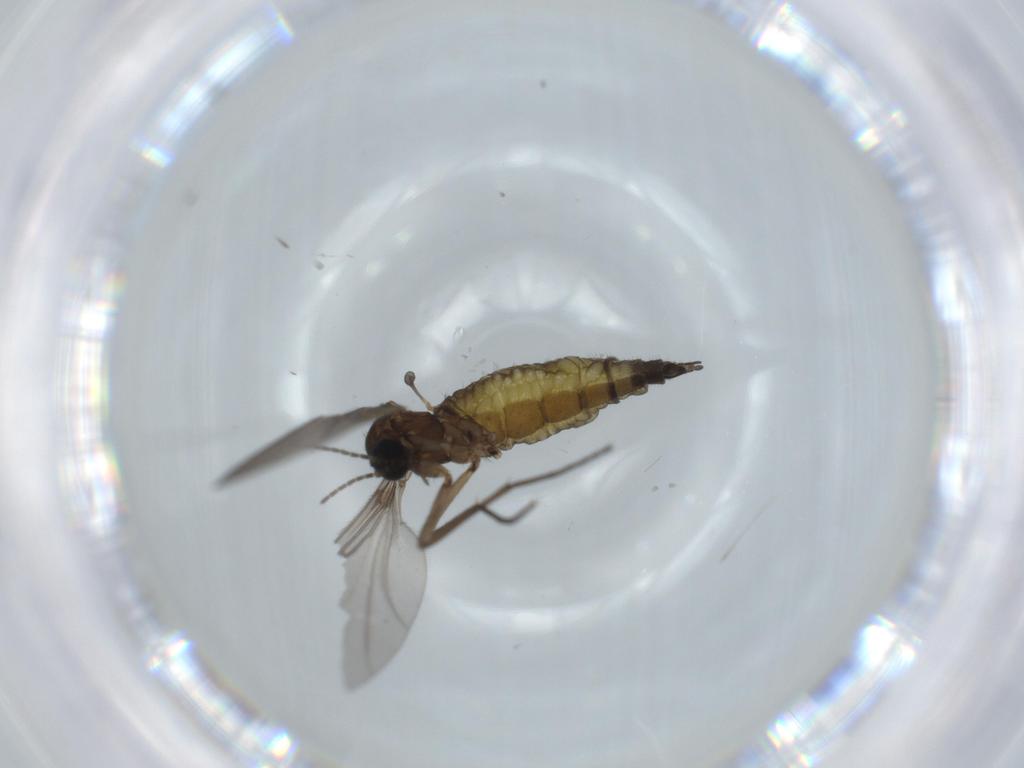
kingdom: Animalia
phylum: Arthropoda
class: Insecta
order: Diptera
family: Sciaridae
